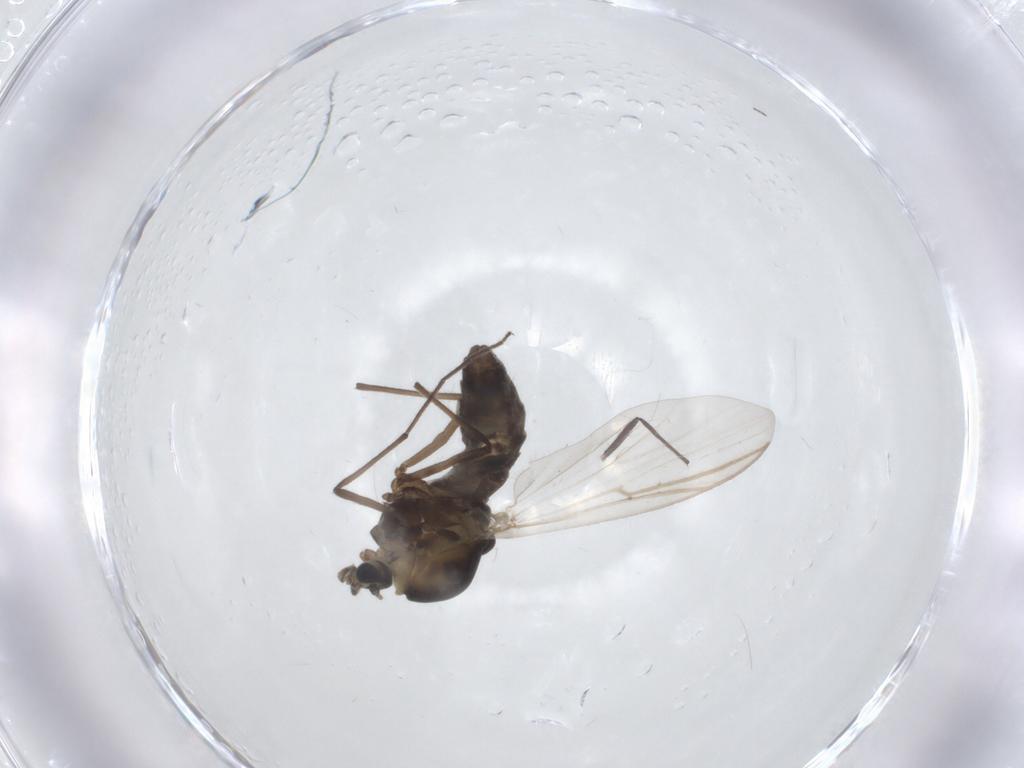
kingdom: Animalia
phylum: Arthropoda
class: Insecta
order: Diptera
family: Chironomidae
